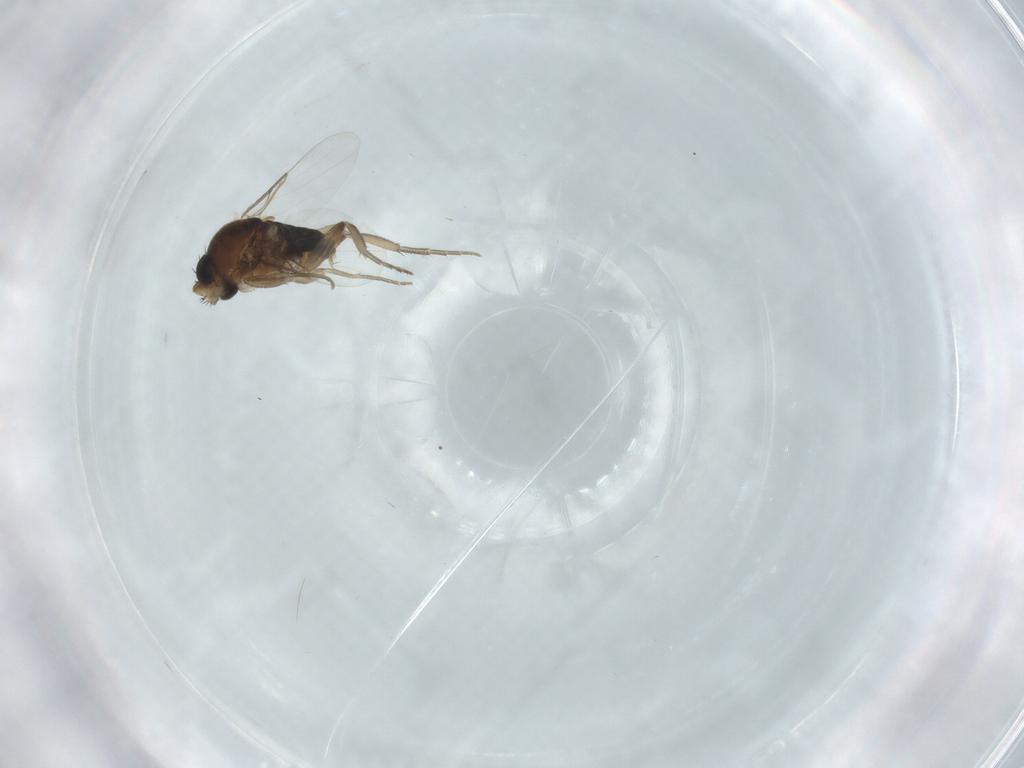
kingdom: Animalia
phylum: Arthropoda
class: Insecta
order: Diptera
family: Phoridae
